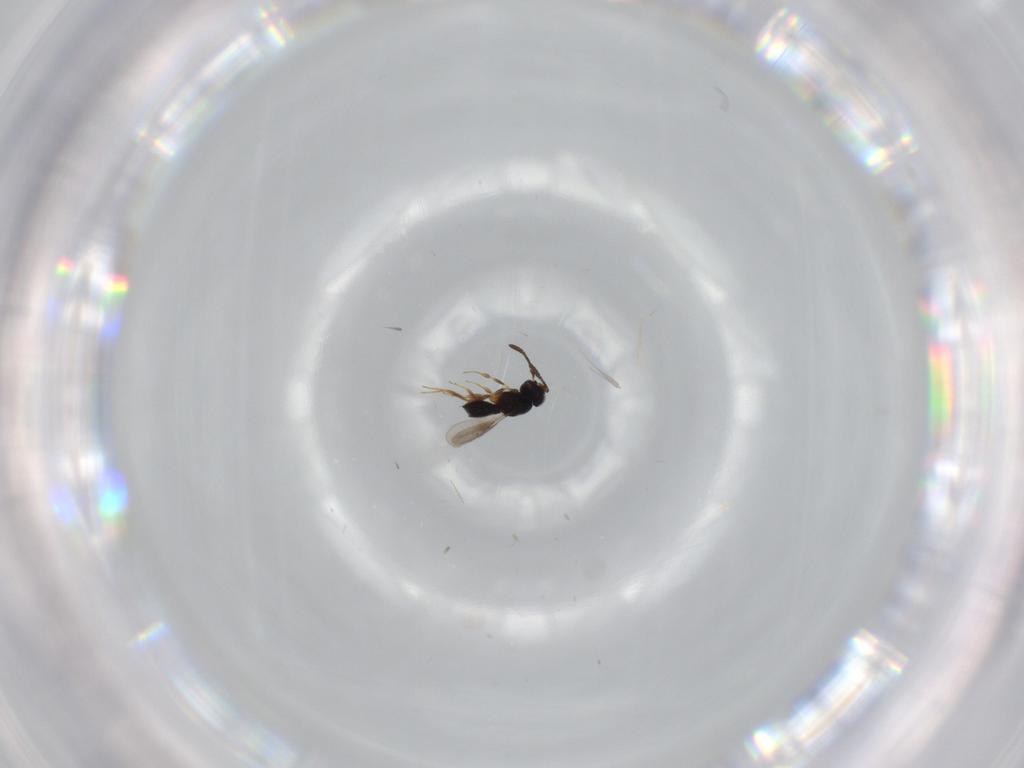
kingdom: Animalia
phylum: Arthropoda
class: Insecta
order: Hymenoptera
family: Scelionidae
